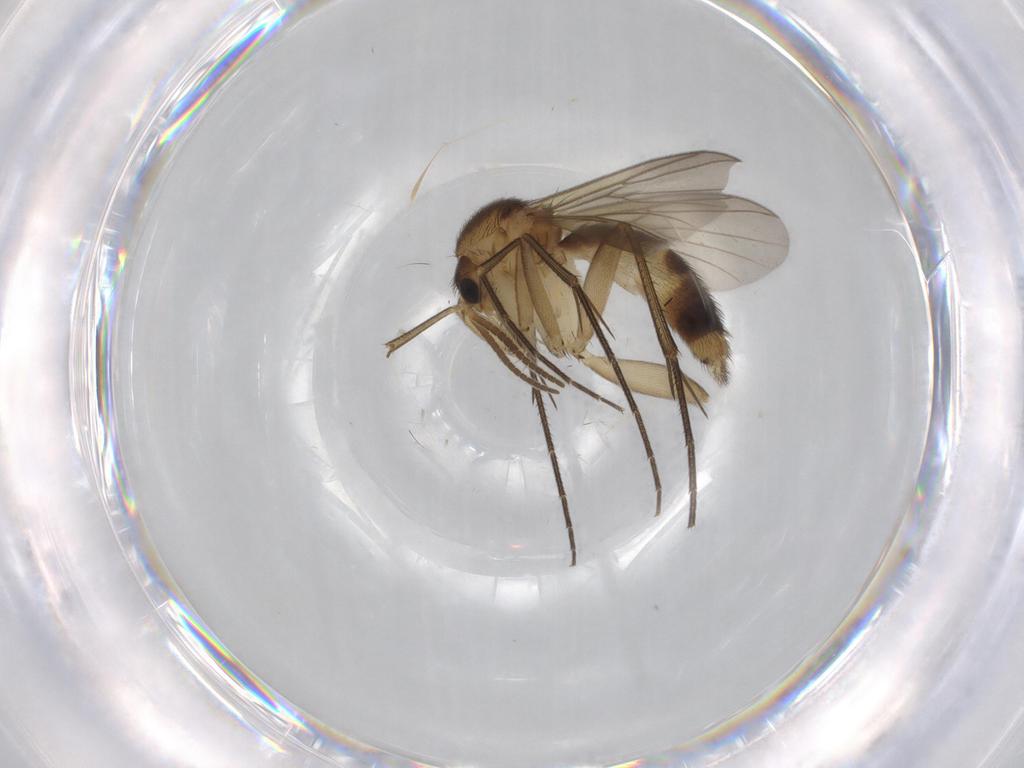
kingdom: Animalia
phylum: Arthropoda
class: Insecta
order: Diptera
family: Mycetophilidae
